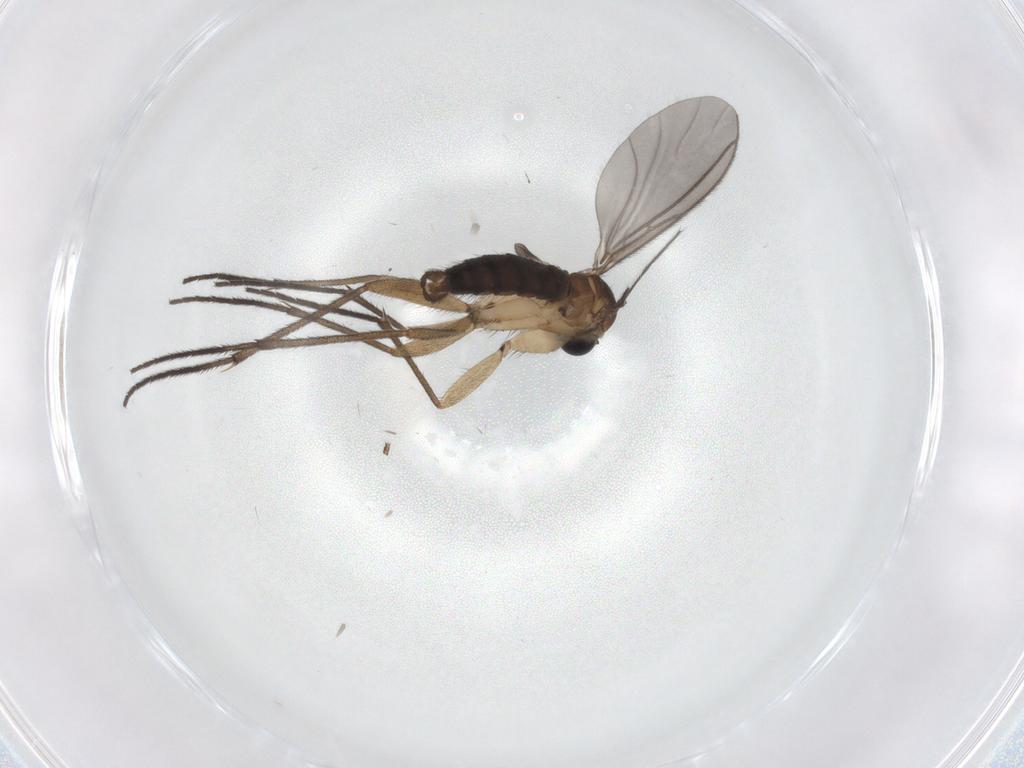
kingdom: Animalia
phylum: Arthropoda
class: Insecta
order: Diptera
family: Sciaridae
